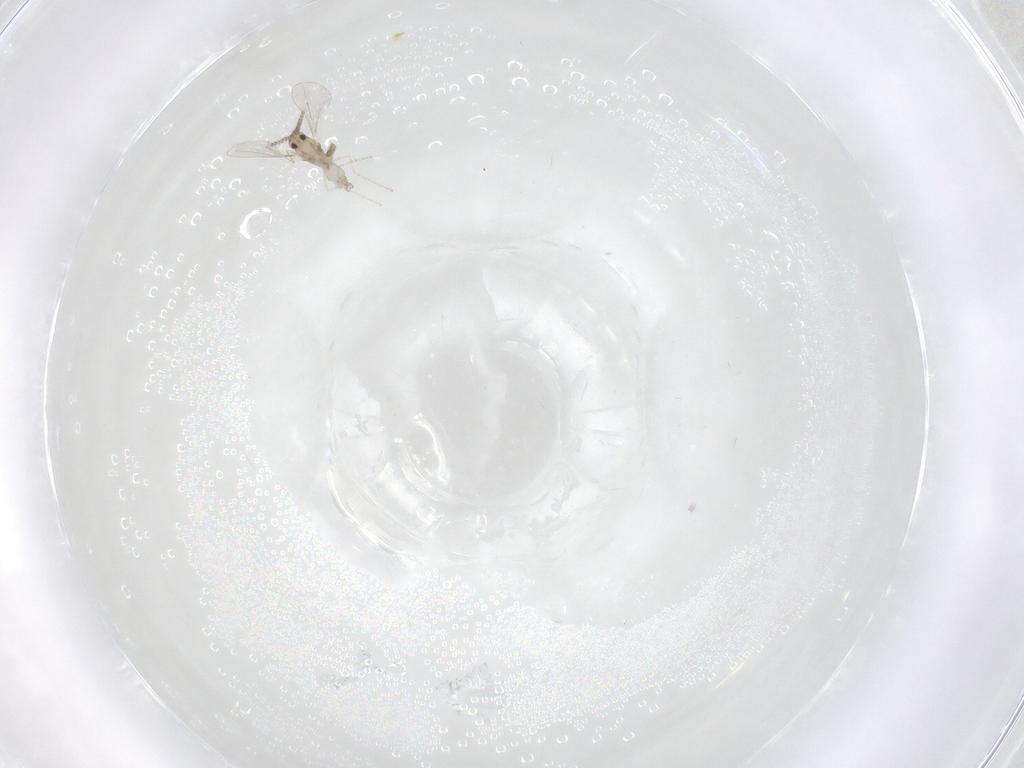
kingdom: Animalia
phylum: Arthropoda
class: Insecta
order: Diptera
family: Cecidomyiidae
